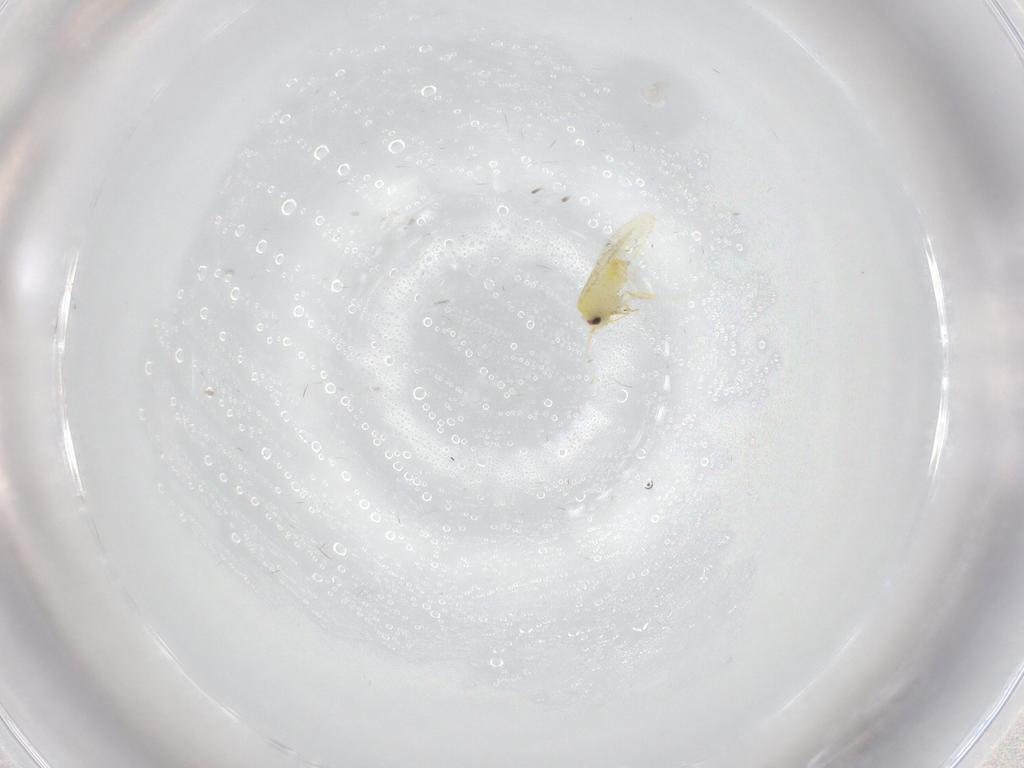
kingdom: Animalia
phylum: Arthropoda
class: Insecta
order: Hemiptera
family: Aleyrodidae
